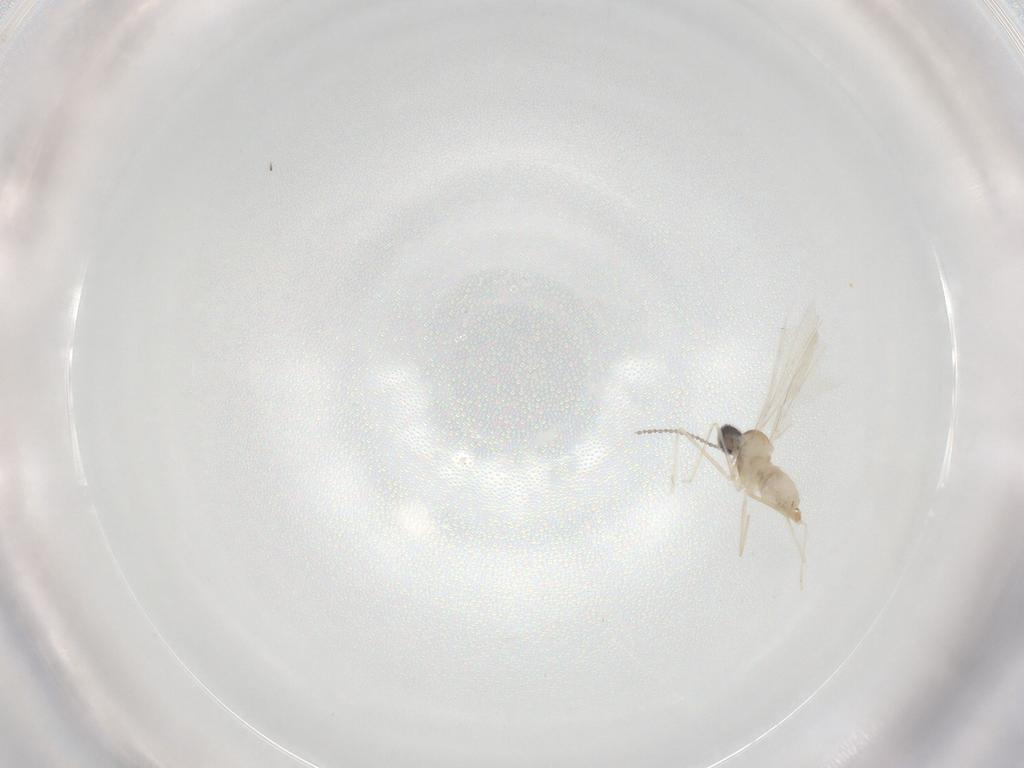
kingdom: Animalia
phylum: Arthropoda
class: Insecta
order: Diptera
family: Cecidomyiidae
